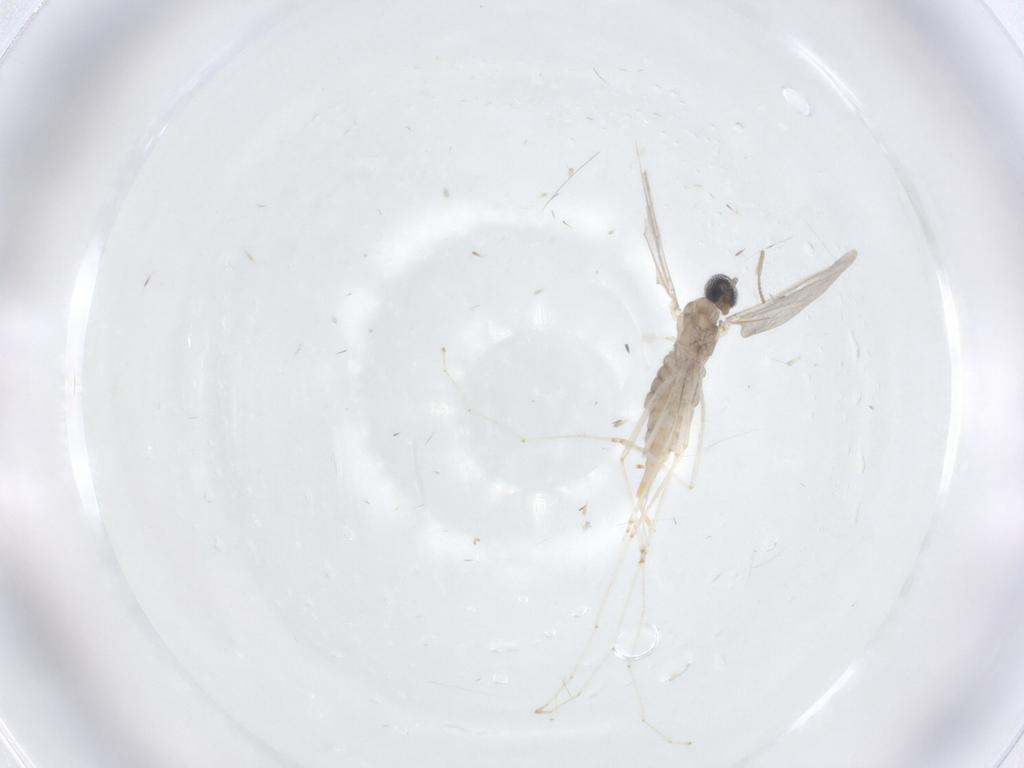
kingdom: Animalia
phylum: Arthropoda
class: Insecta
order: Diptera
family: Cecidomyiidae
